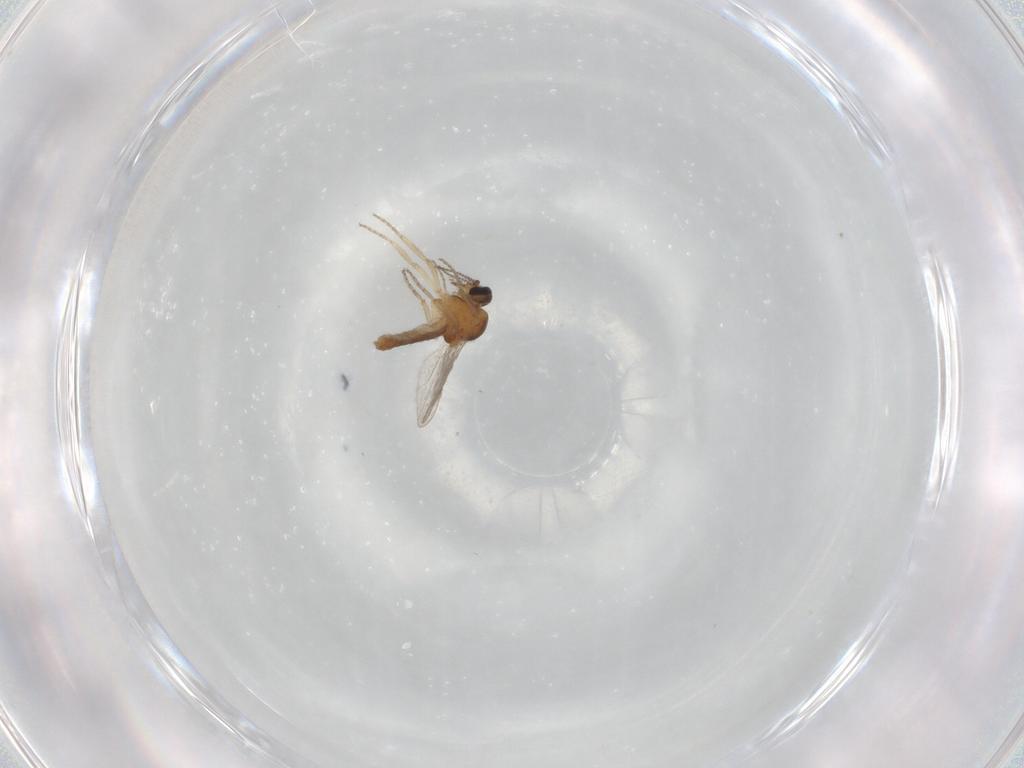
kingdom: Animalia
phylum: Arthropoda
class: Insecta
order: Diptera
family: Ceratopogonidae
